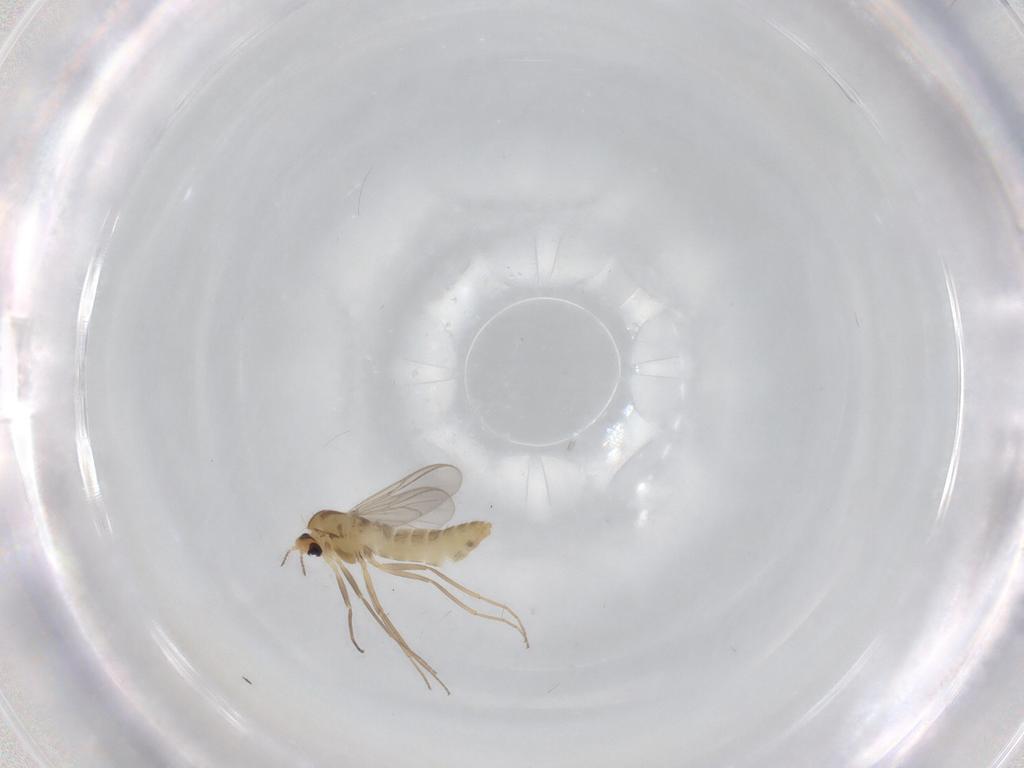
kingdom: Animalia
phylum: Arthropoda
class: Insecta
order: Diptera
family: Chironomidae
